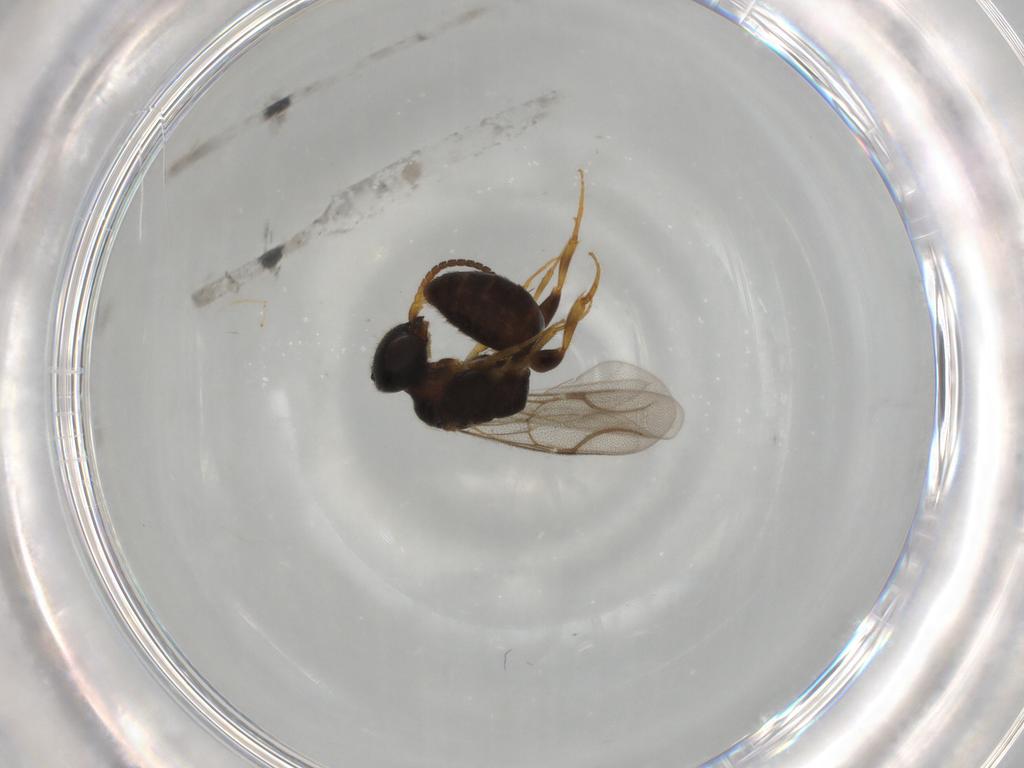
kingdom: Animalia
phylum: Arthropoda
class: Insecta
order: Hymenoptera
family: Bethylidae
